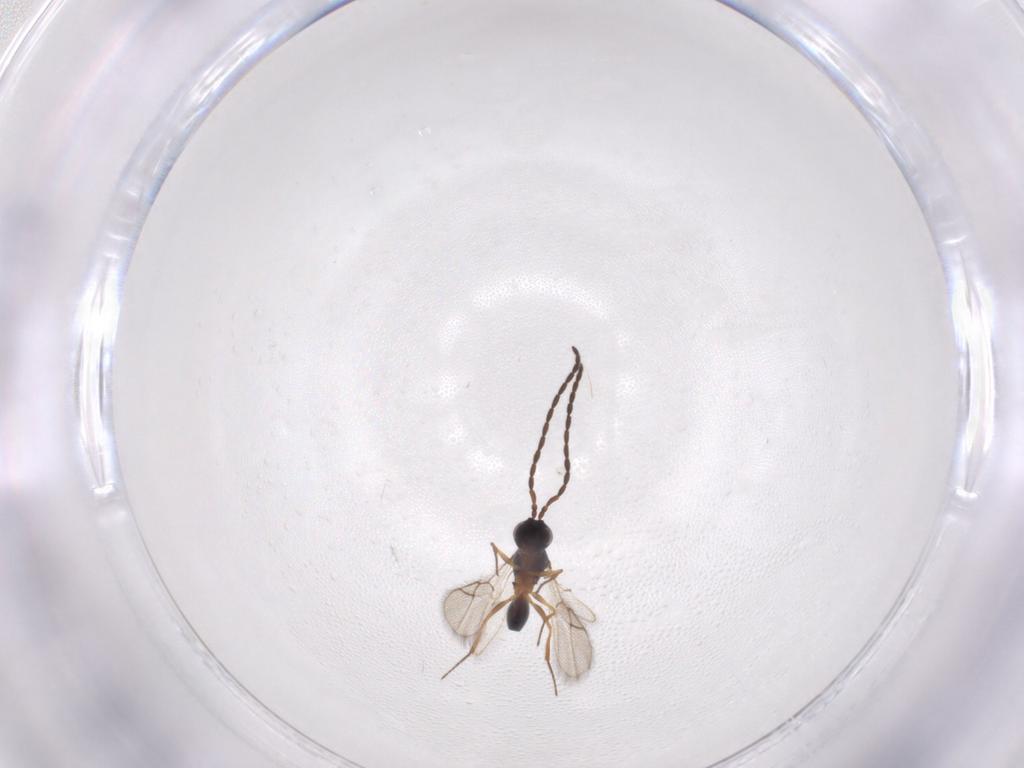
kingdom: Animalia
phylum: Arthropoda
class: Insecta
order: Hymenoptera
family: Figitidae
